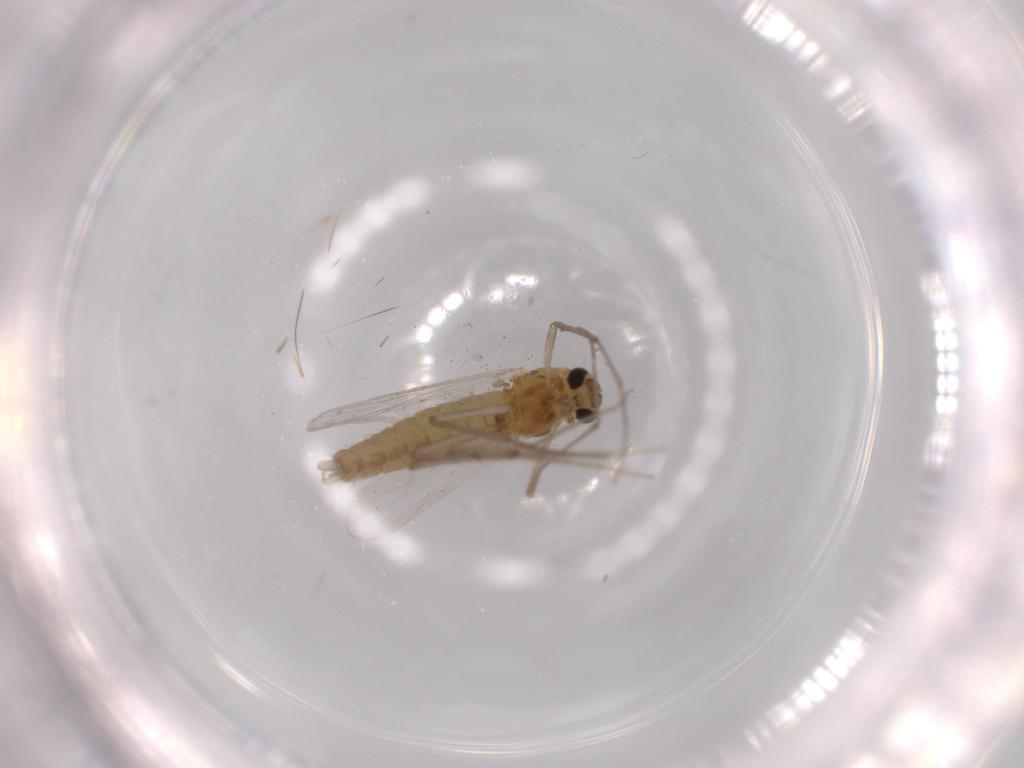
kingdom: Animalia
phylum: Arthropoda
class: Insecta
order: Diptera
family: Chironomidae
